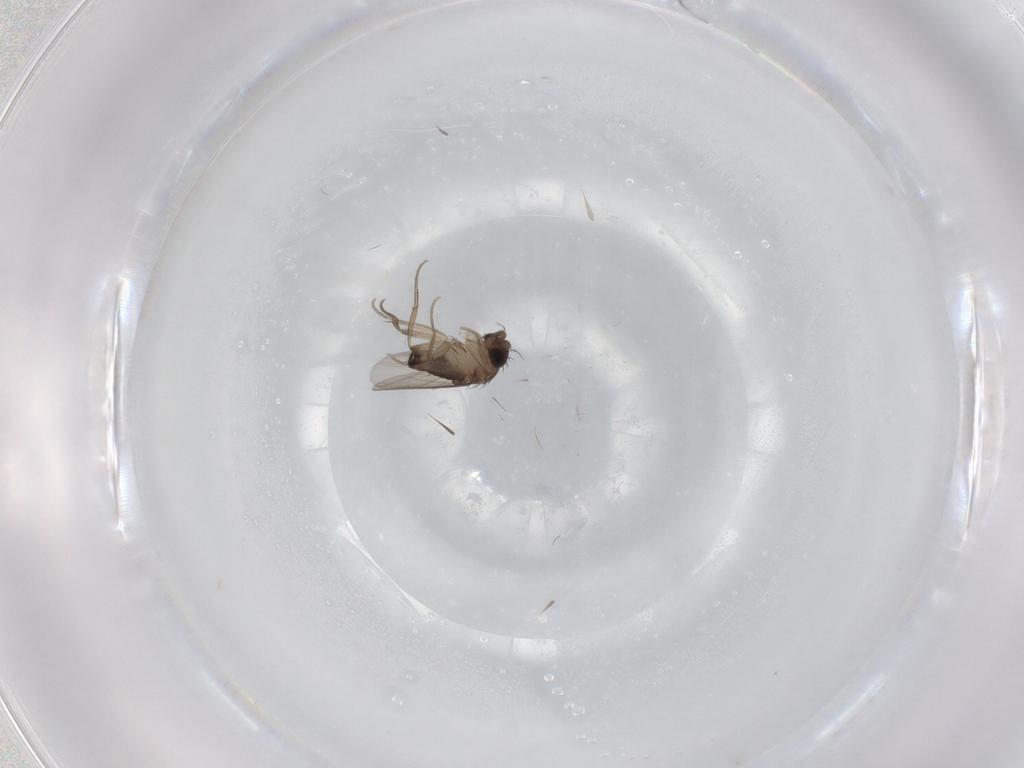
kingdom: Animalia
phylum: Arthropoda
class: Insecta
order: Diptera
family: Phoridae
